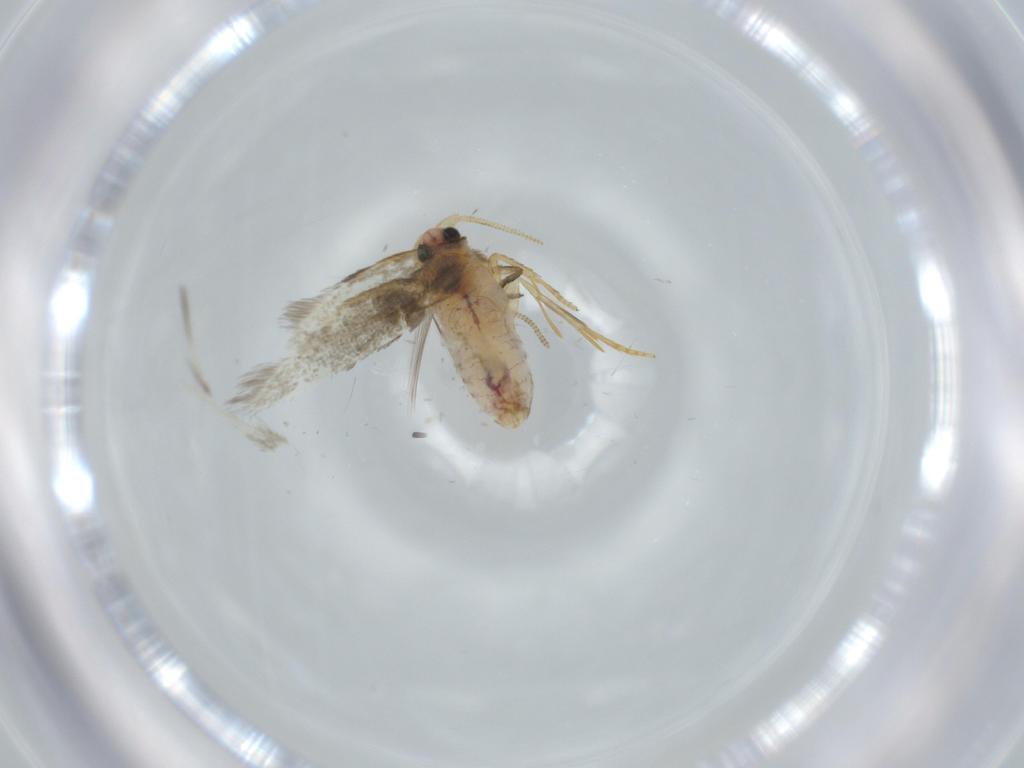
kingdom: Animalia
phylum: Arthropoda
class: Insecta
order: Lepidoptera
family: Nepticulidae
